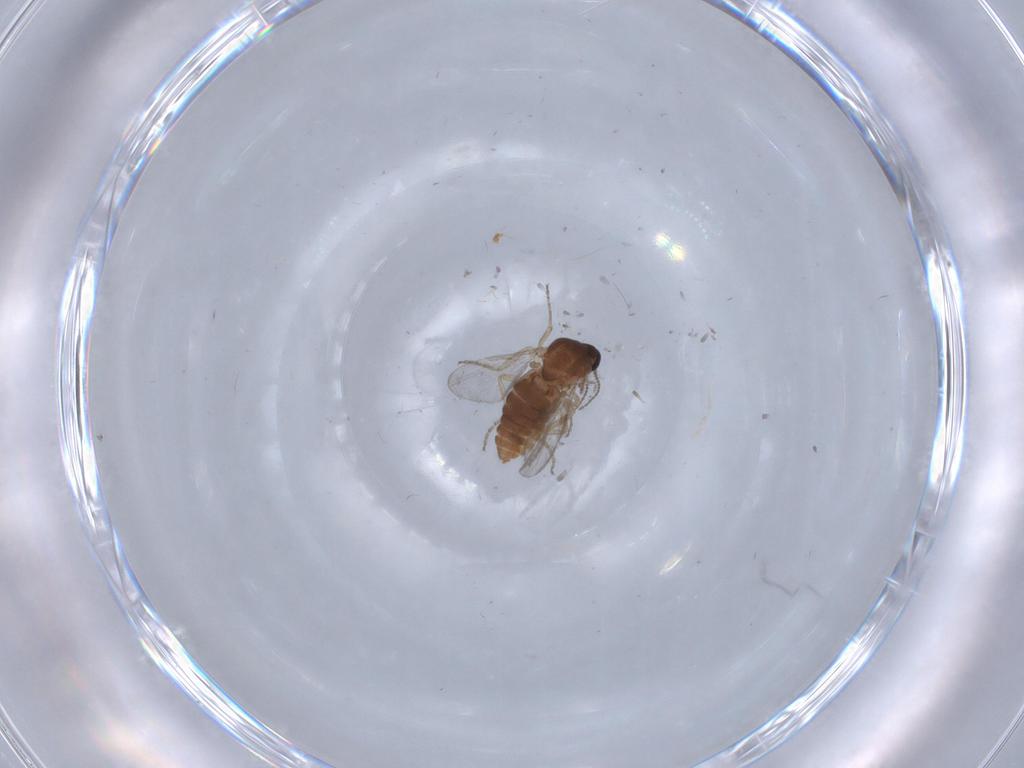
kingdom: Animalia
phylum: Arthropoda
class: Insecta
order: Diptera
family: Ceratopogonidae
